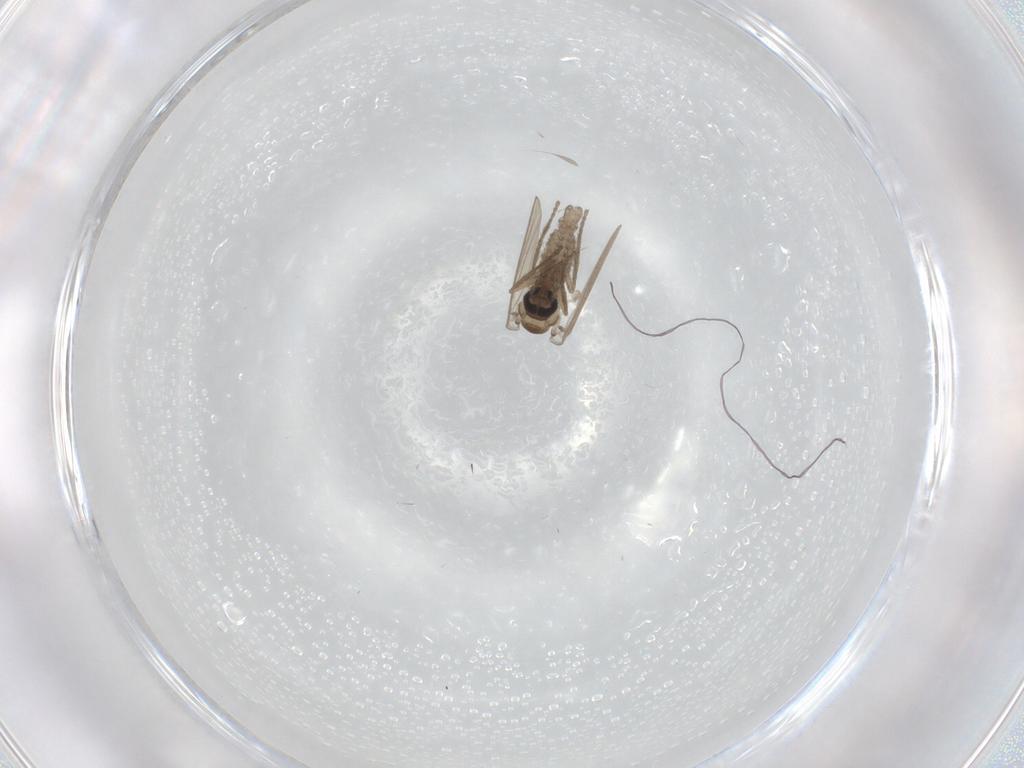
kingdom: Animalia
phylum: Arthropoda
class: Insecta
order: Diptera
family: Psychodidae
